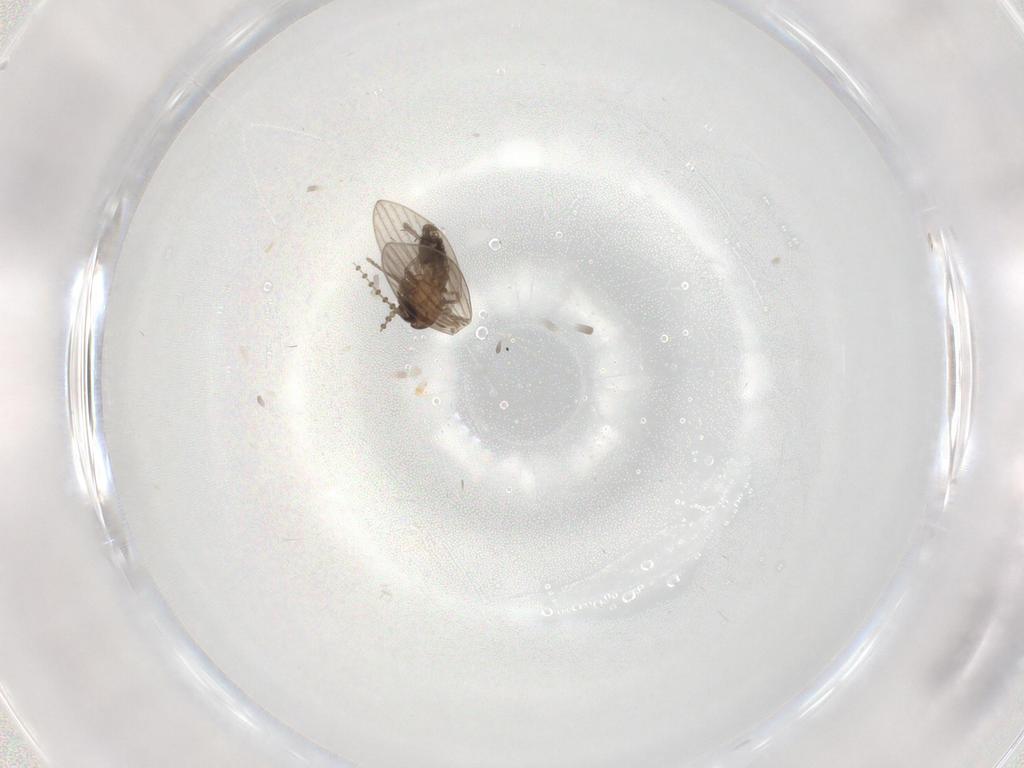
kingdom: Animalia
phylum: Arthropoda
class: Insecta
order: Diptera
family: Psychodidae
